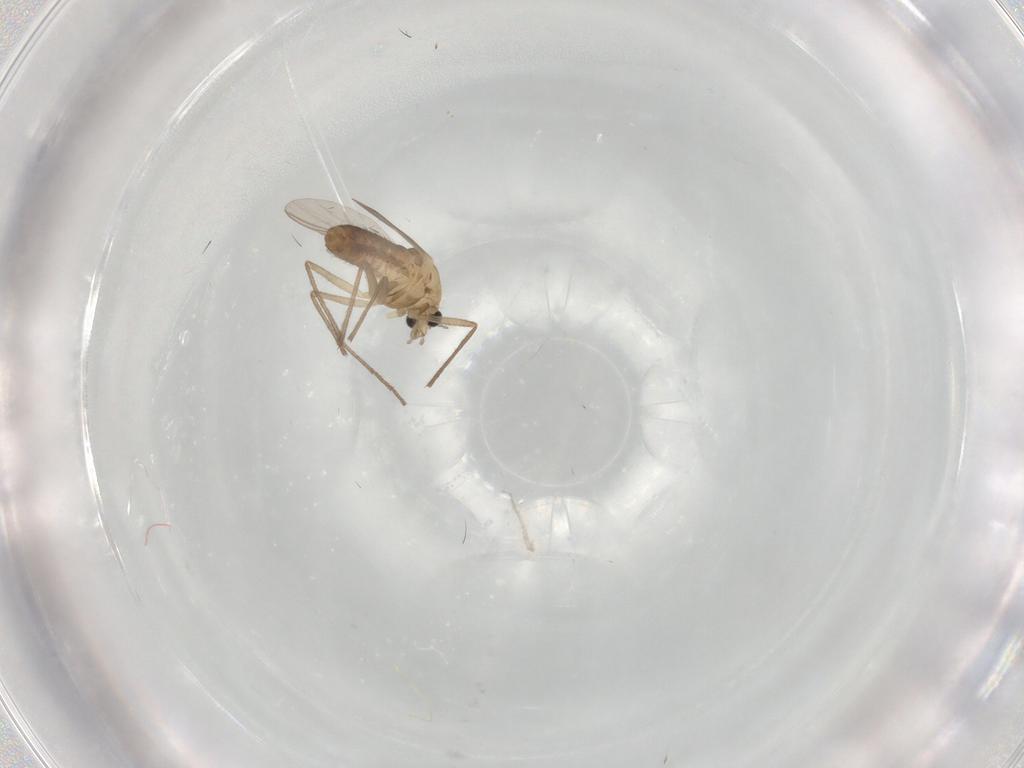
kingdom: Animalia
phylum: Arthropoda
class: Insecta
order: Diptera
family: Chironomidae
